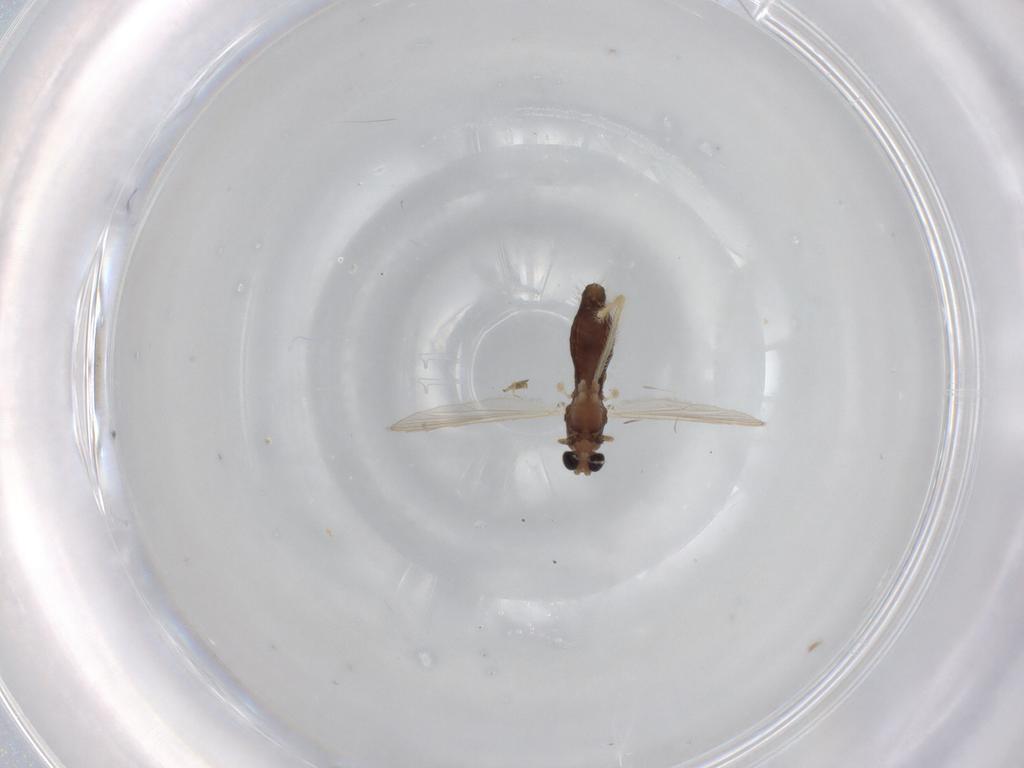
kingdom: Animalia
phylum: Arthropoda
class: Insecta
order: Diptera
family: Chironomidae
